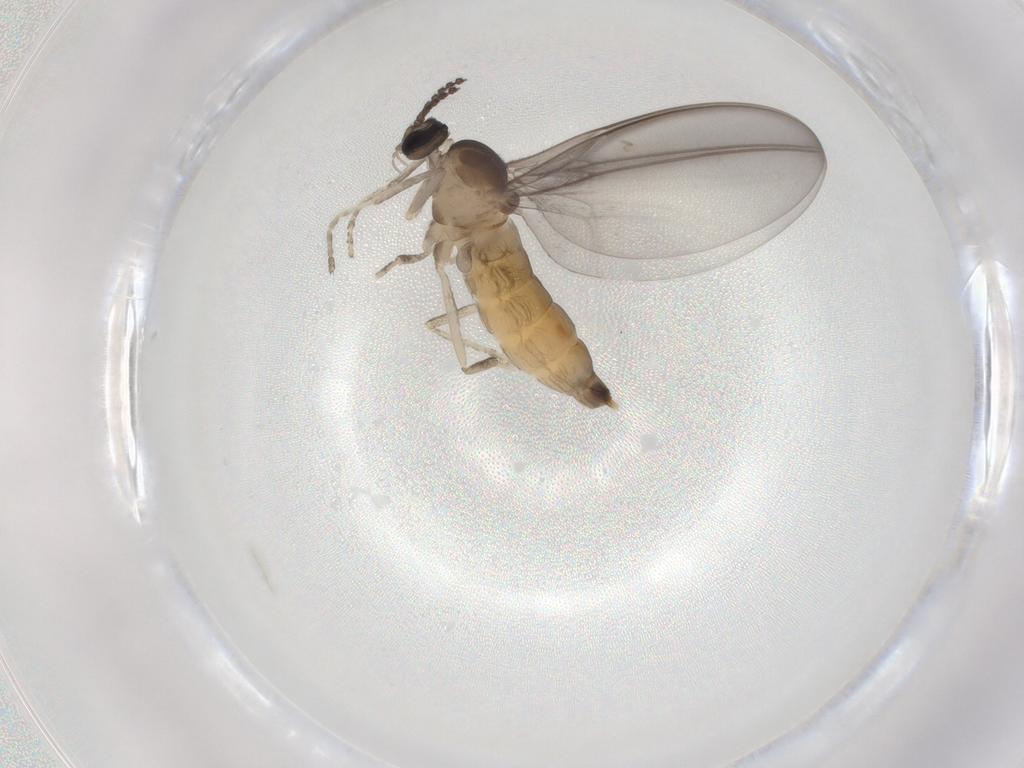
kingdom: Animalia
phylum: Arthropoda
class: Insecta
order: Diptera
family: Cecidomyiidae
